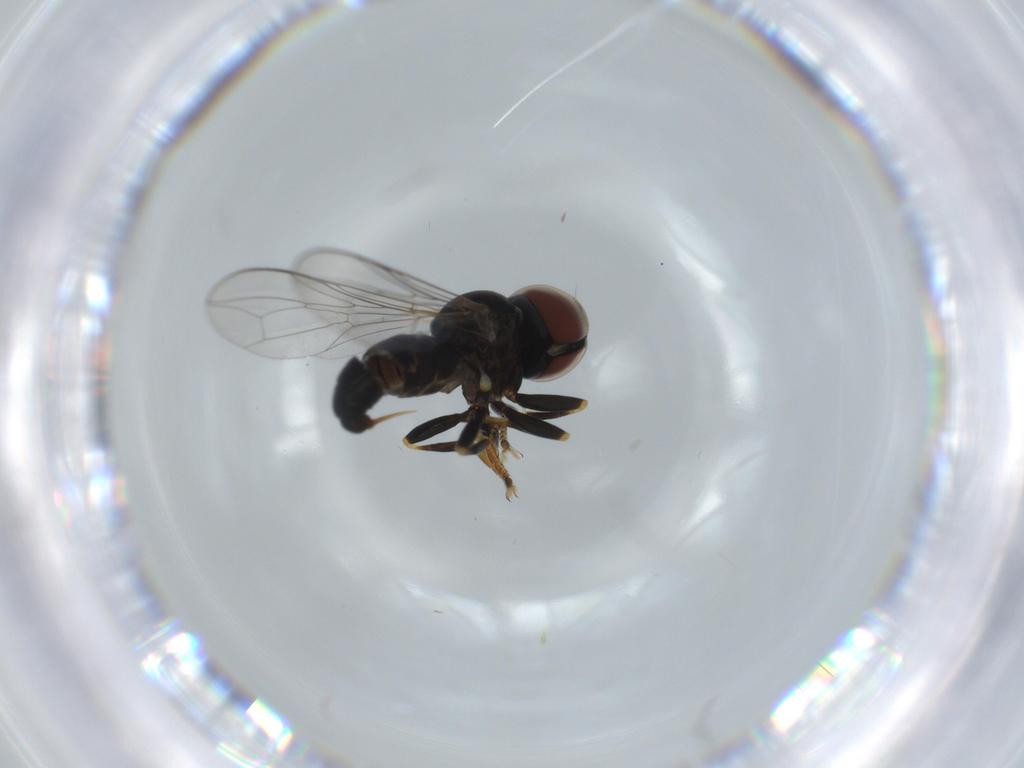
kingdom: Animalia
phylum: Arthropoda
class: Insecta
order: Diptera
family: Pipunculidae
